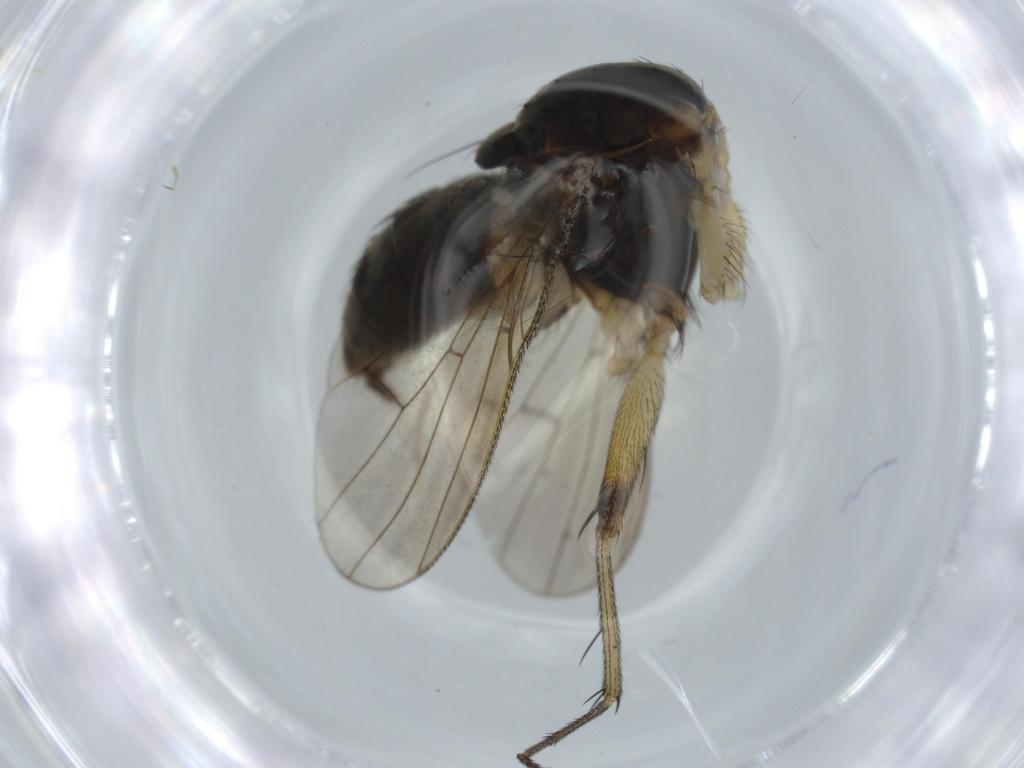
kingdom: Animalia
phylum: Arthropoda
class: Insecta
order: Diptera
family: Muscidae
